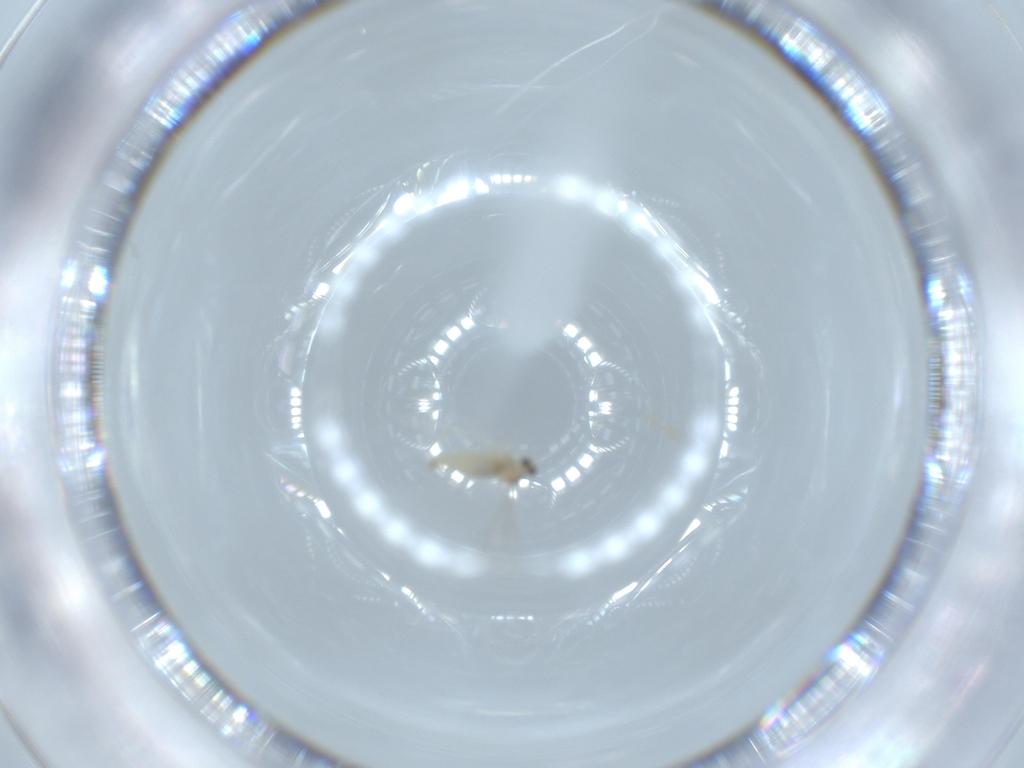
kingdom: Animalia
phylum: Arthropoda
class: Insecta
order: Diptera
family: Cecidomyiidae
